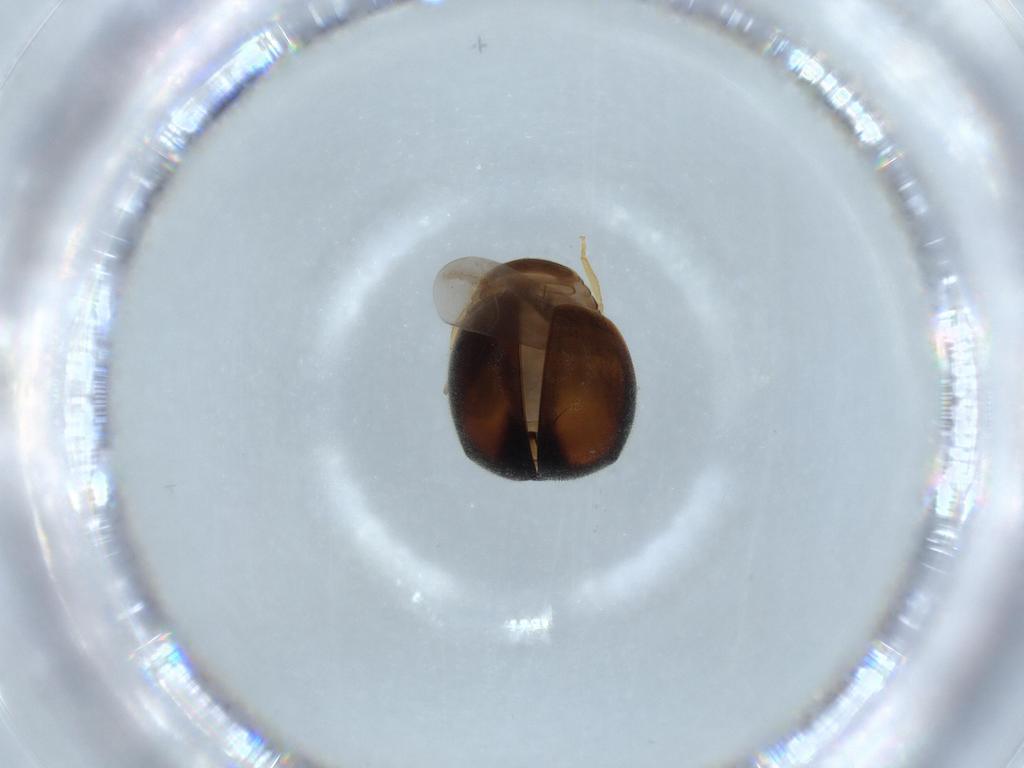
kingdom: Animalia
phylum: Arthropoda
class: Insecta
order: Coleoptera
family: Coccinellidae
